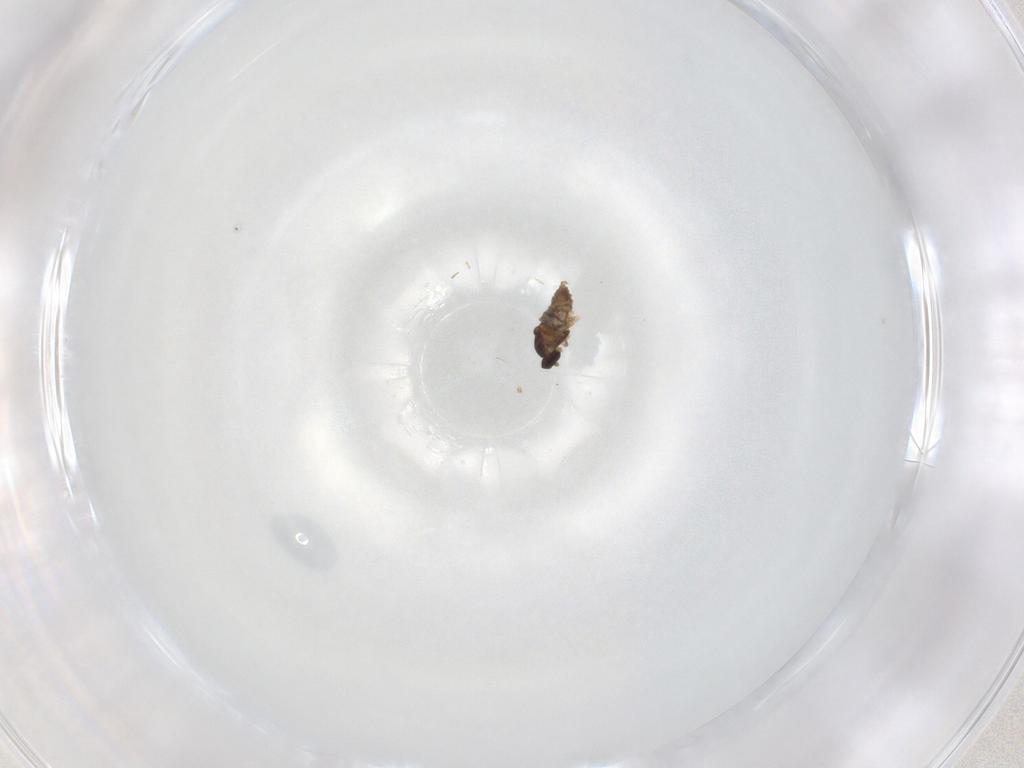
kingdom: Animalia
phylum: Arthropoda
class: Insecta
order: Diptera
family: Cecidomyiidae
